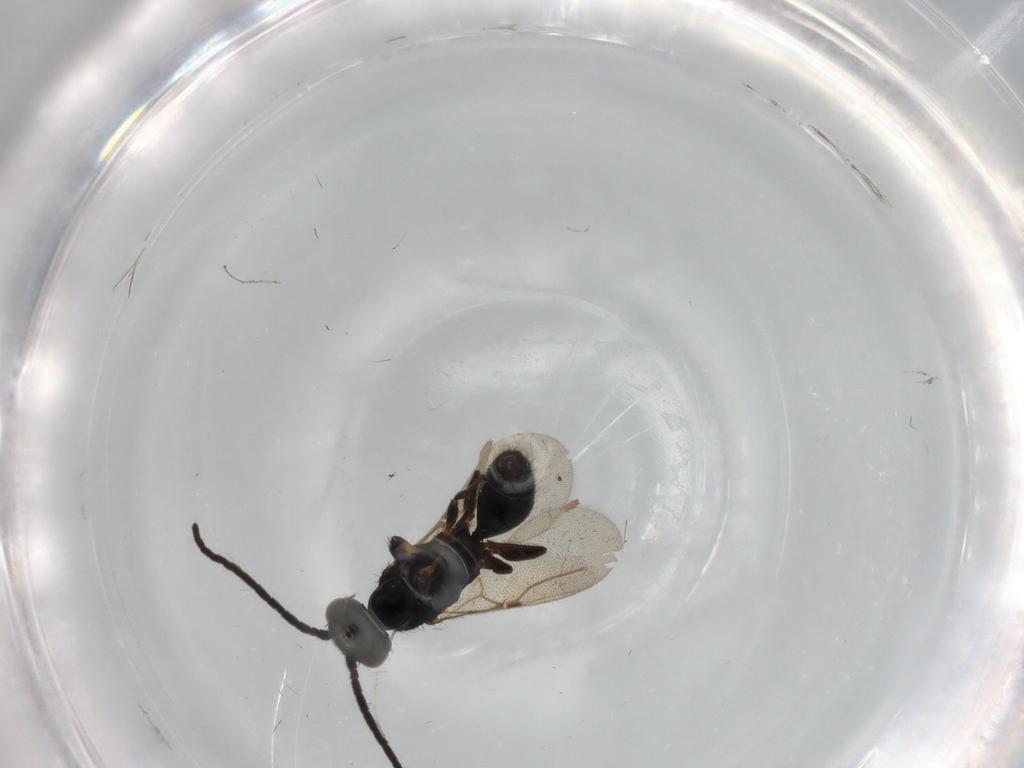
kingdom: Animalia
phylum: Arthropoda
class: Insecta
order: Hymenoptera
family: Bethylidae
